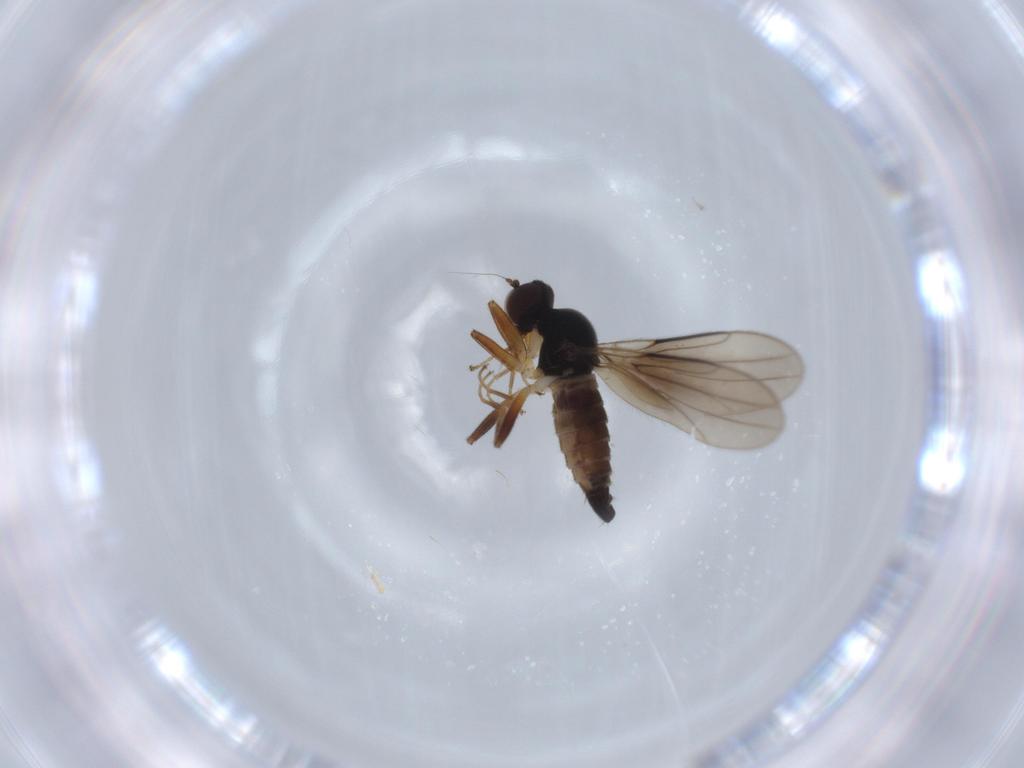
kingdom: Animalia
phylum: Arthropoda
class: Insecta
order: Diptera
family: Hybotidae
